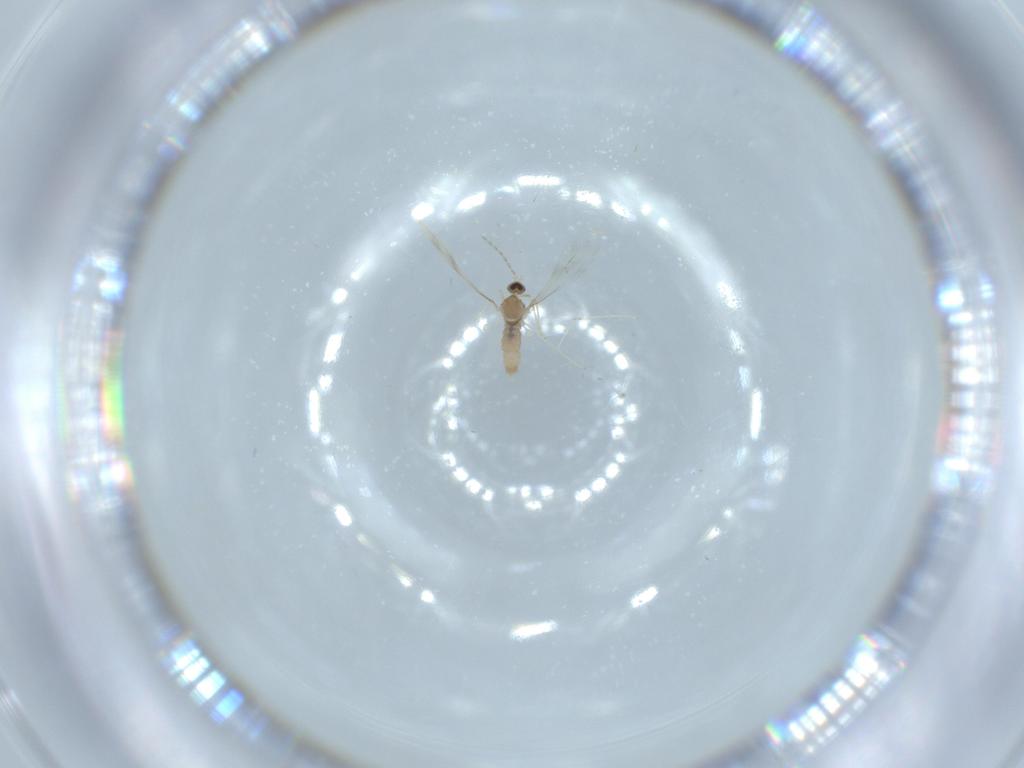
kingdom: Animalia
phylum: Arthropoda
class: Insecta
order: Diptera
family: Cecidomyiidae
